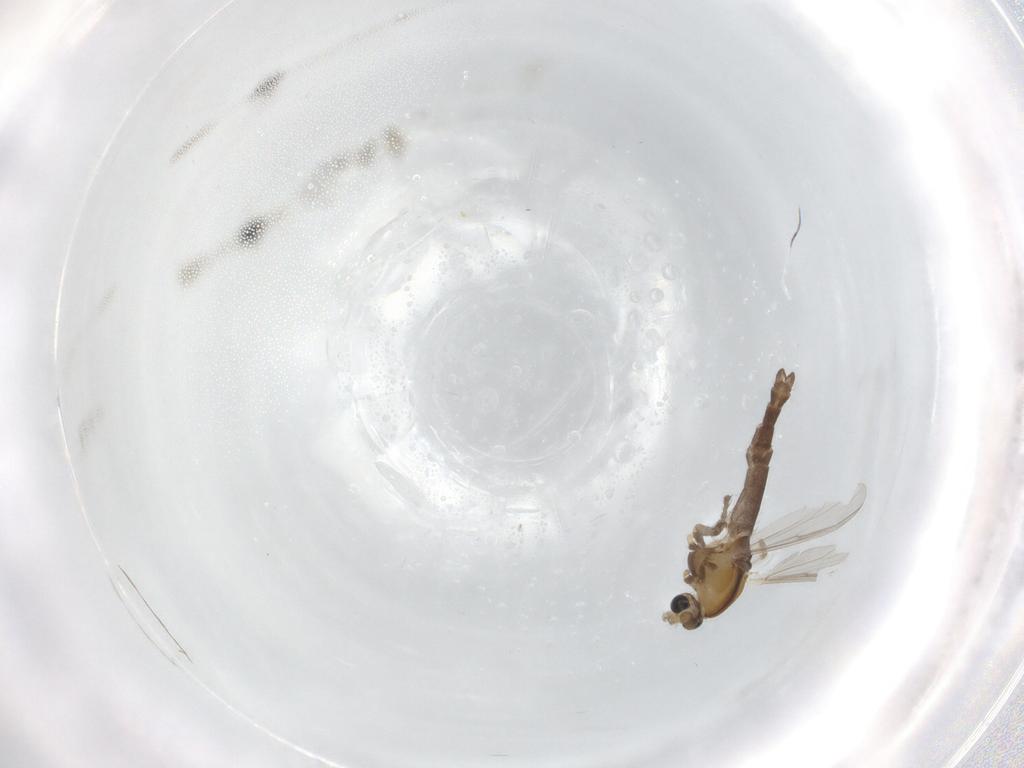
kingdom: Animalia
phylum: Arthropoda
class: Insecta
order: Diptera
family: Chironomidae
